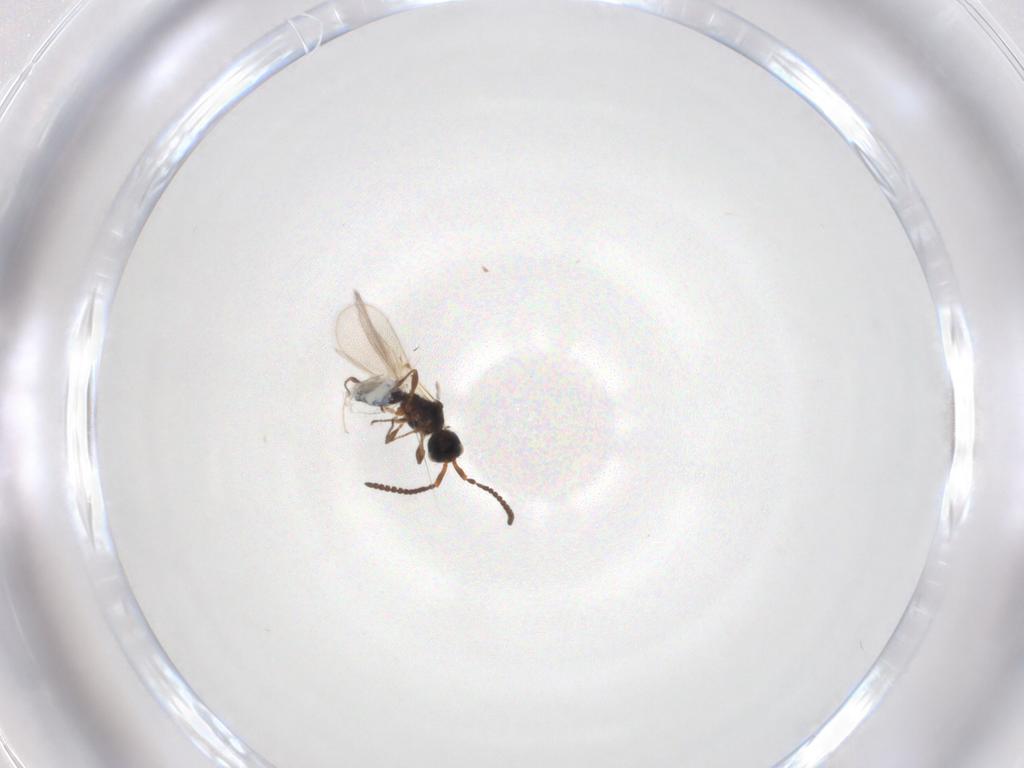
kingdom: Animalia
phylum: Arthropoda
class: Insecta
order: Hymenoptera
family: Diapriidae
